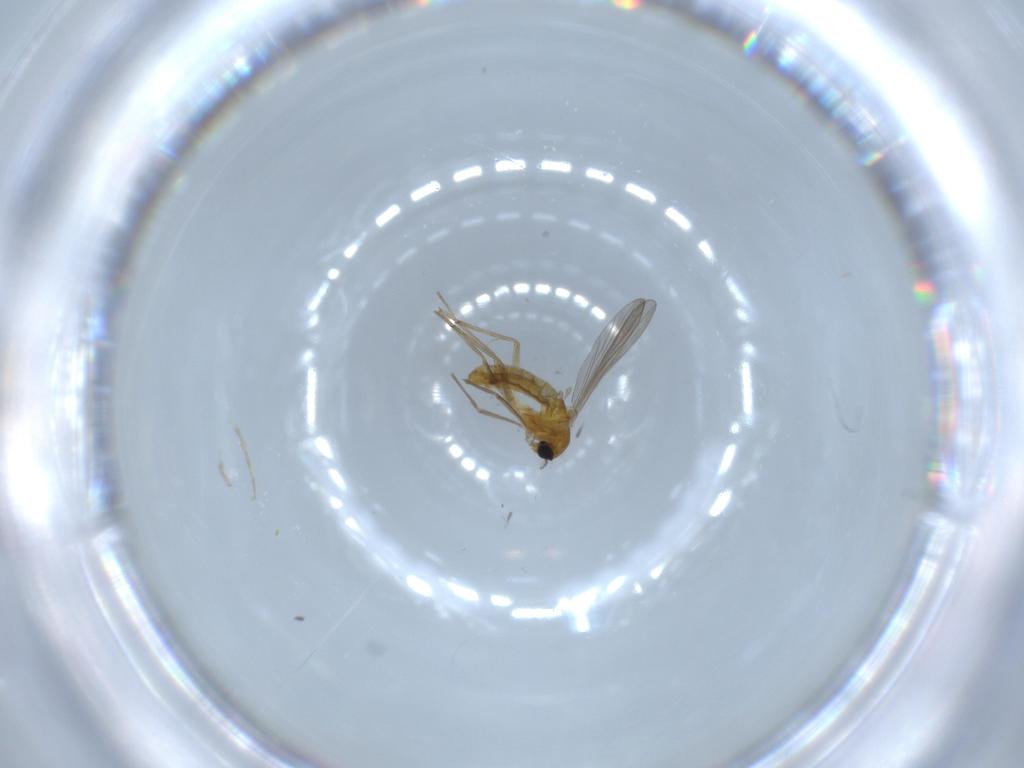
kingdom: Animalia
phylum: Arthropoda
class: Insecta
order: Diptera
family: Chironomidae
